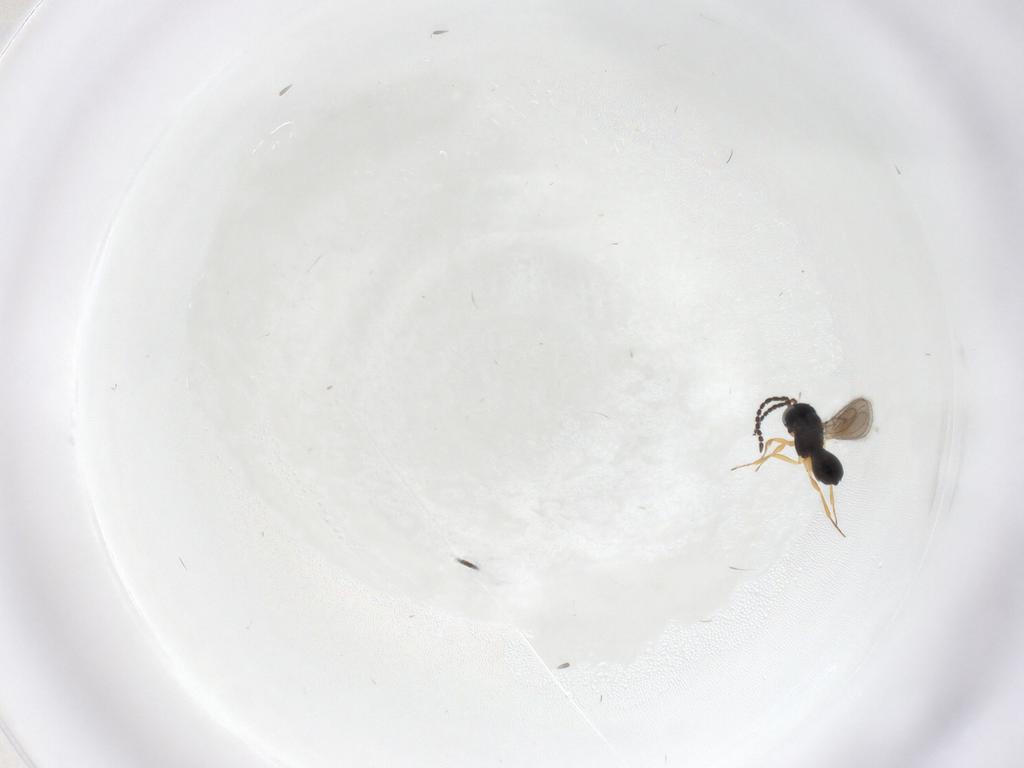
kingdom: Animalia
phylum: Arthropoda
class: Insecta
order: Hymenoptera
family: Scelionidae
